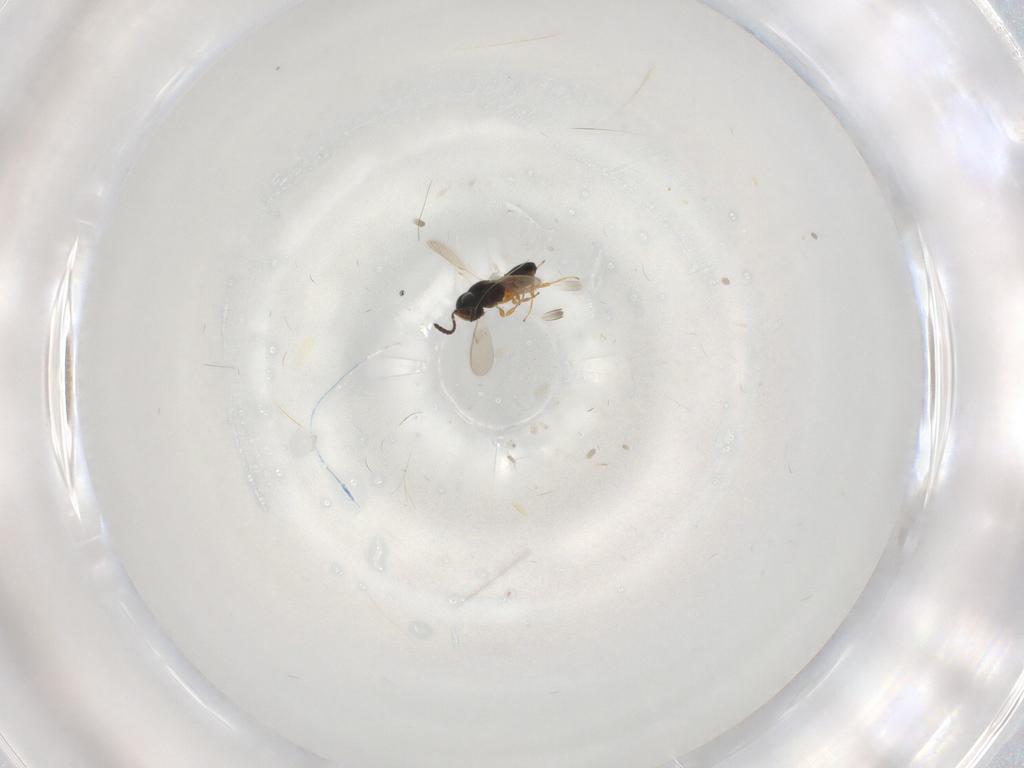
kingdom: Animalia
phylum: Arthropoda
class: Insecta
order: Hymenoptera
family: Scelionidae
